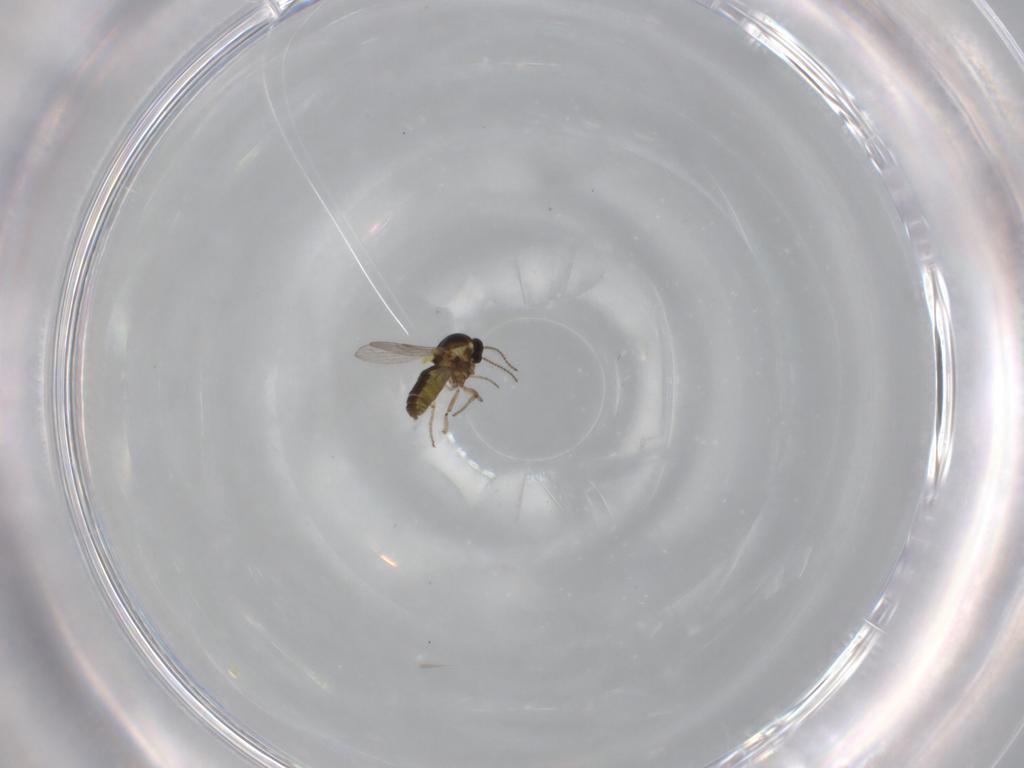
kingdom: Animalia
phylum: Arthropoda
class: Insecta
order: Diptera
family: Ceratopogonidae
